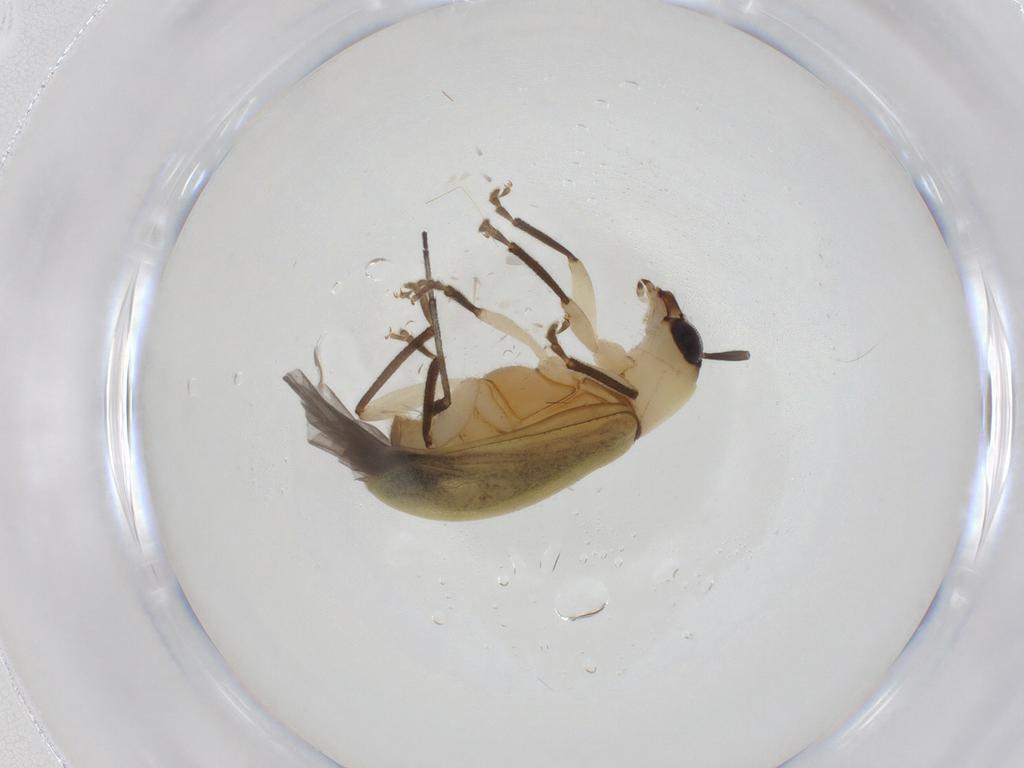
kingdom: Animalia
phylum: Arthropoda
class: Insecta
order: Coleoptera
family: Chrysomelidae
